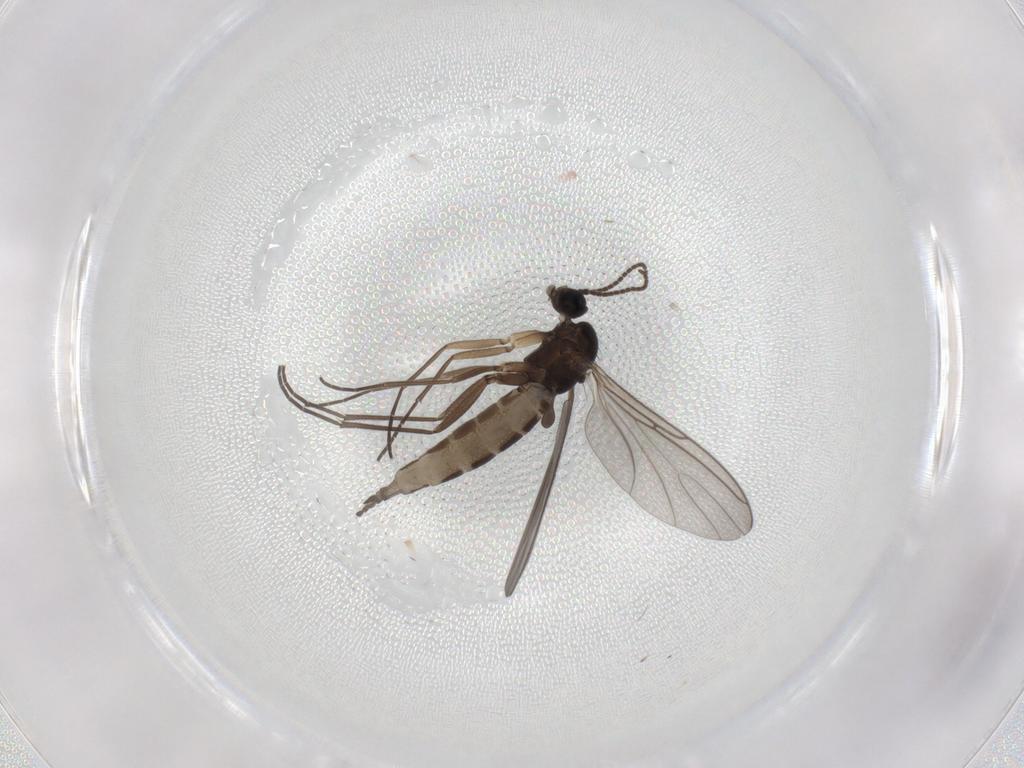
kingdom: Animalia
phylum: Arthropoda
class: Insecta
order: Diptera
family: Sciaridae
